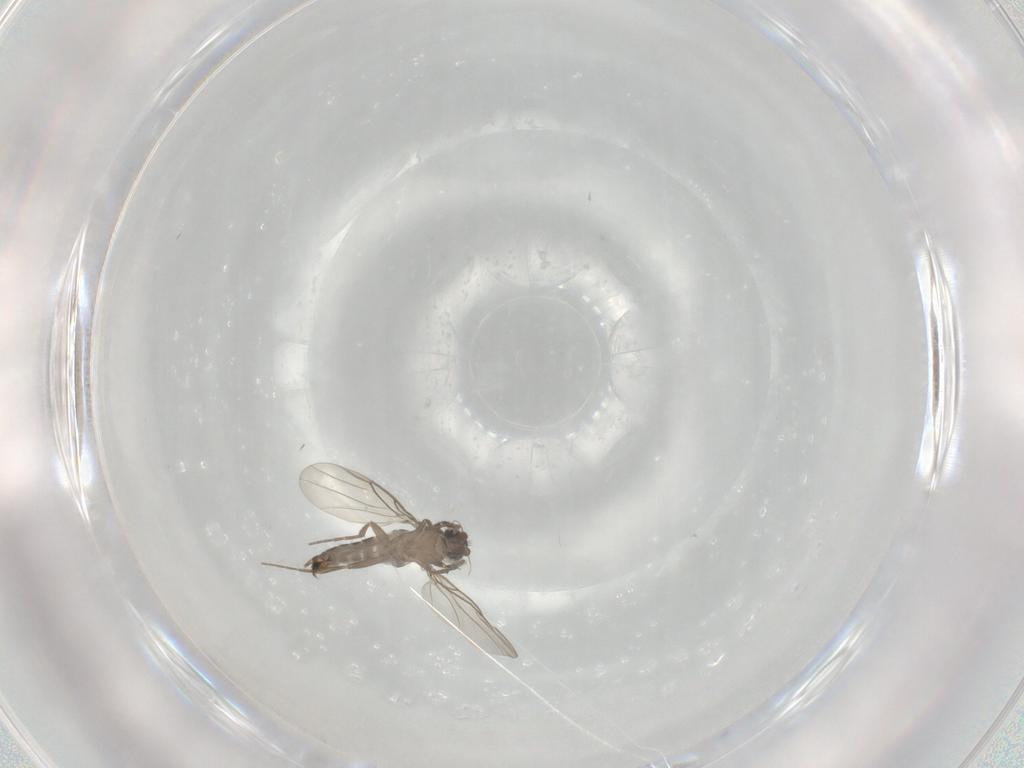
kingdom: Animalia
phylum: Arthropoda
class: Insecta
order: Diptera
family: Phoridae
